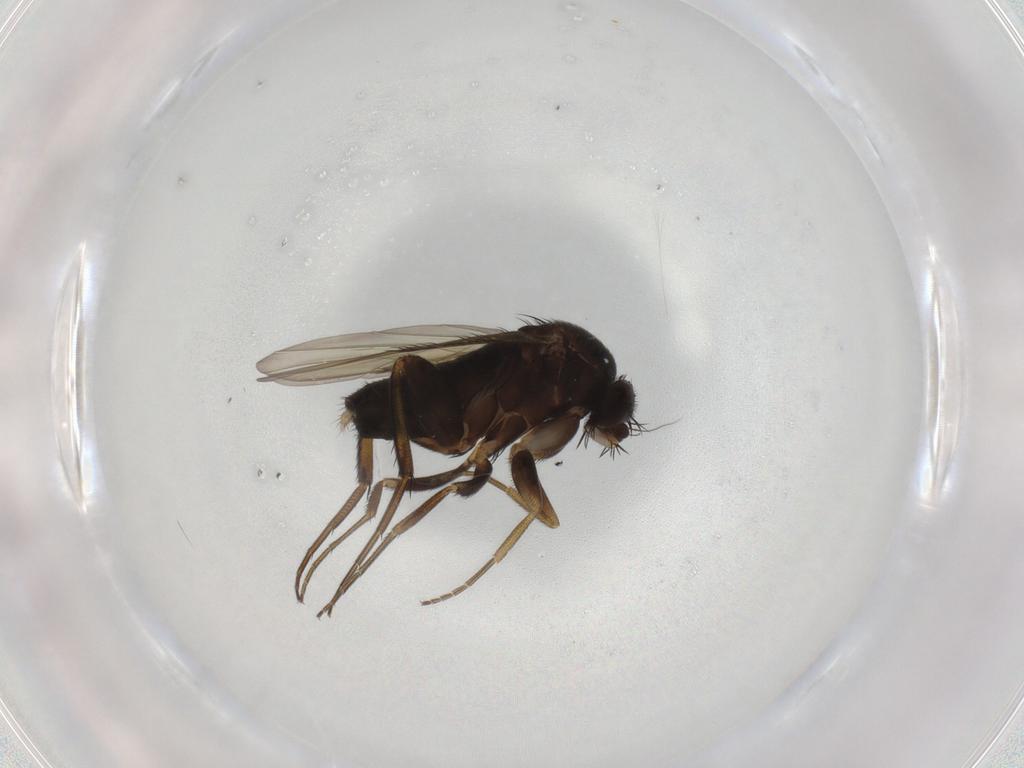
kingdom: Animalia
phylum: Arthropoda
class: Insecta
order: Diptera
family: Phoridae
